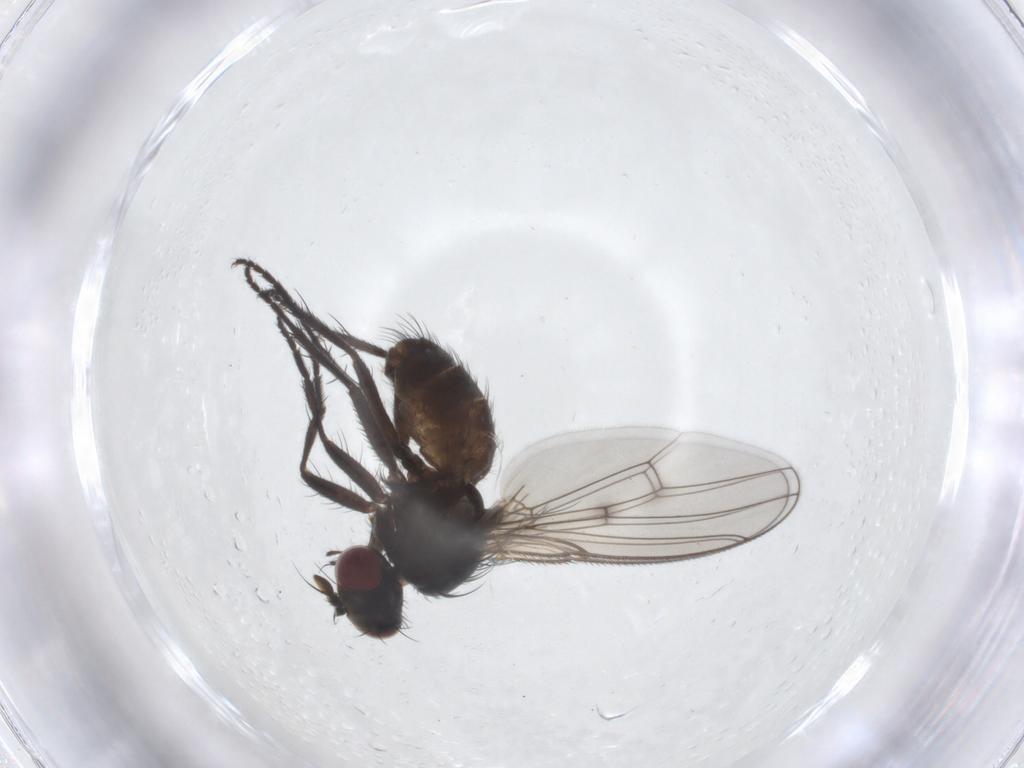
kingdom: Animalia
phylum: Arthropoda
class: Insecta
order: Diptera
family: Muscidae
